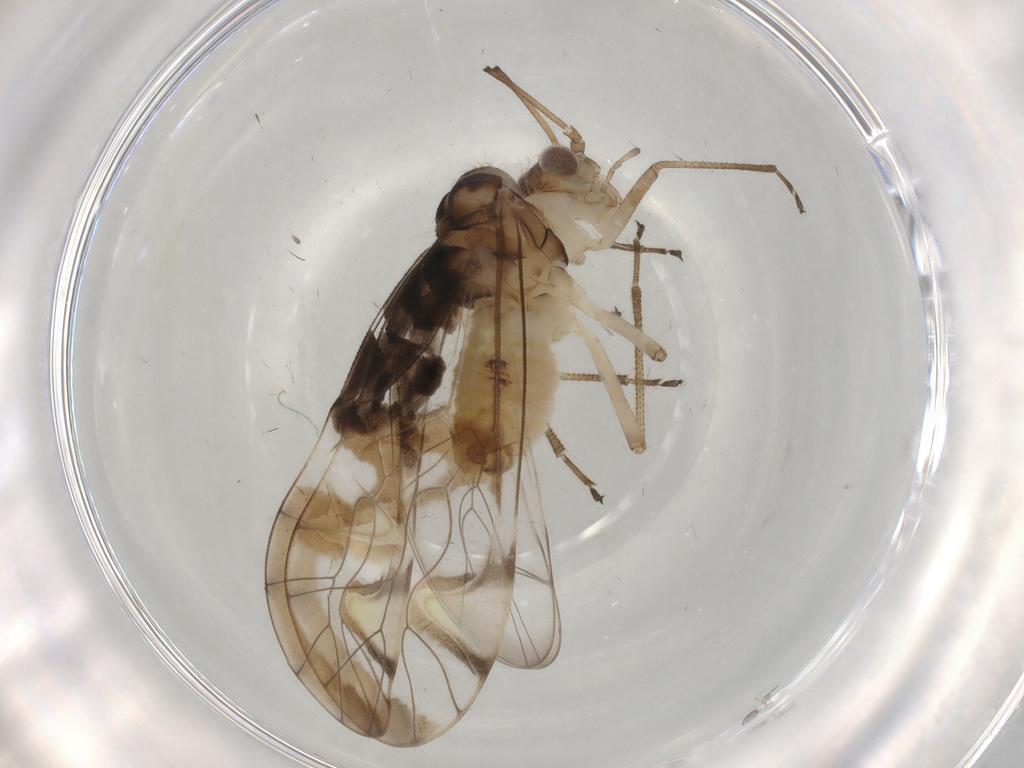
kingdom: Animalia
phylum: Arthropoda
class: Insecta
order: Psocodea
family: Amphipsocidae
